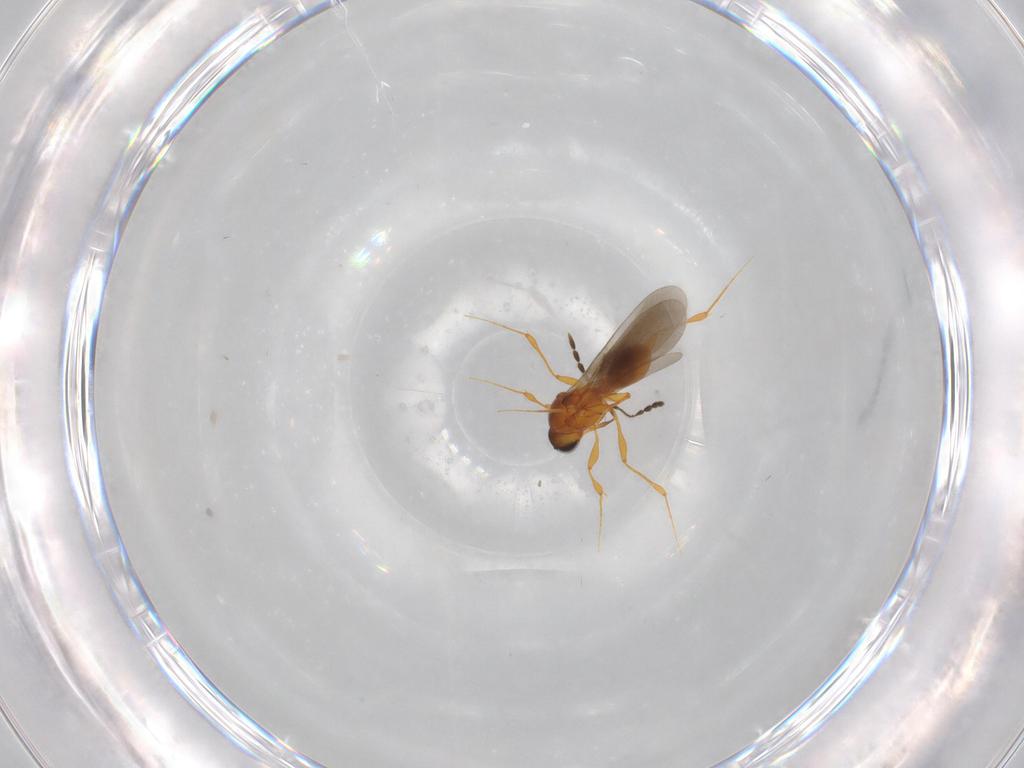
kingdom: Animalia
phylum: Arthropoda
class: Insecta
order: Hymenoptera
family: Platygastridae
